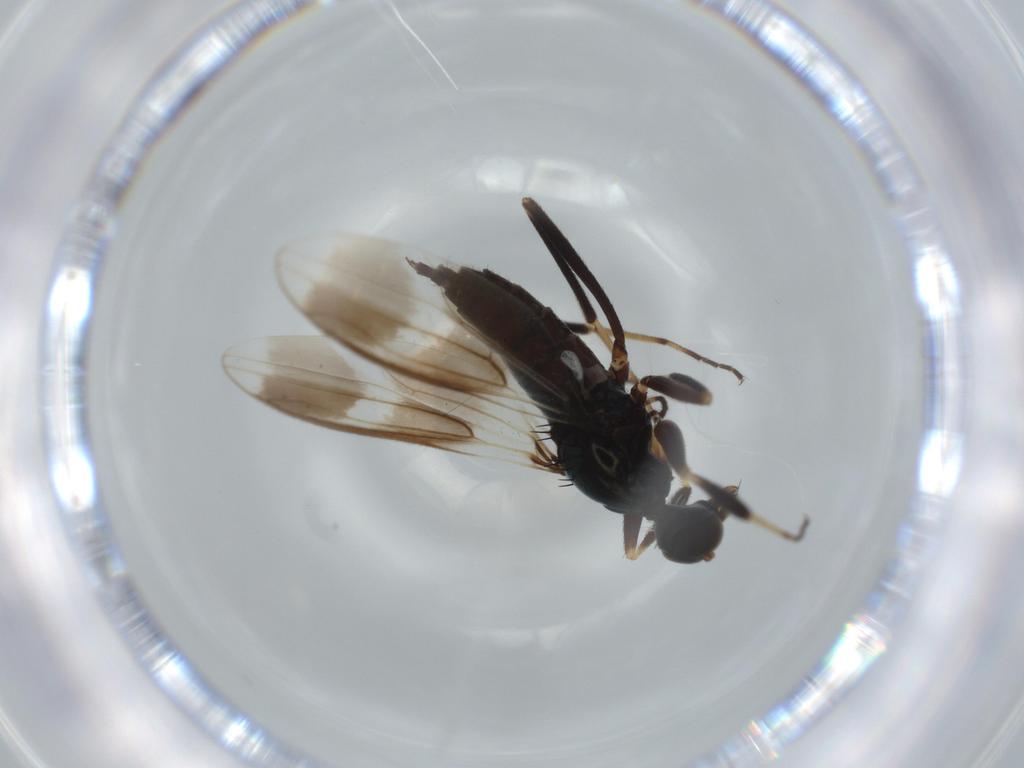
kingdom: Animalia
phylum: Arthropoda
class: Insecta
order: Diptera
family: Hybotidae
